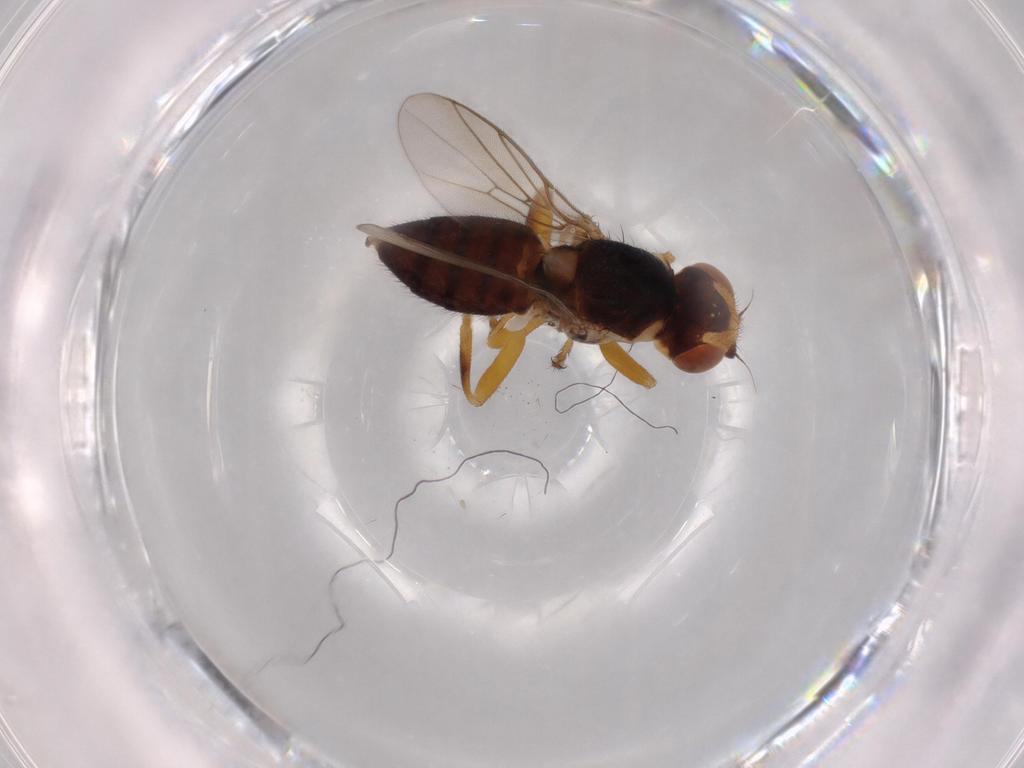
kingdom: Animalia
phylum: Arthropoda
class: Insecta
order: Diptera
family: Chloropidae
